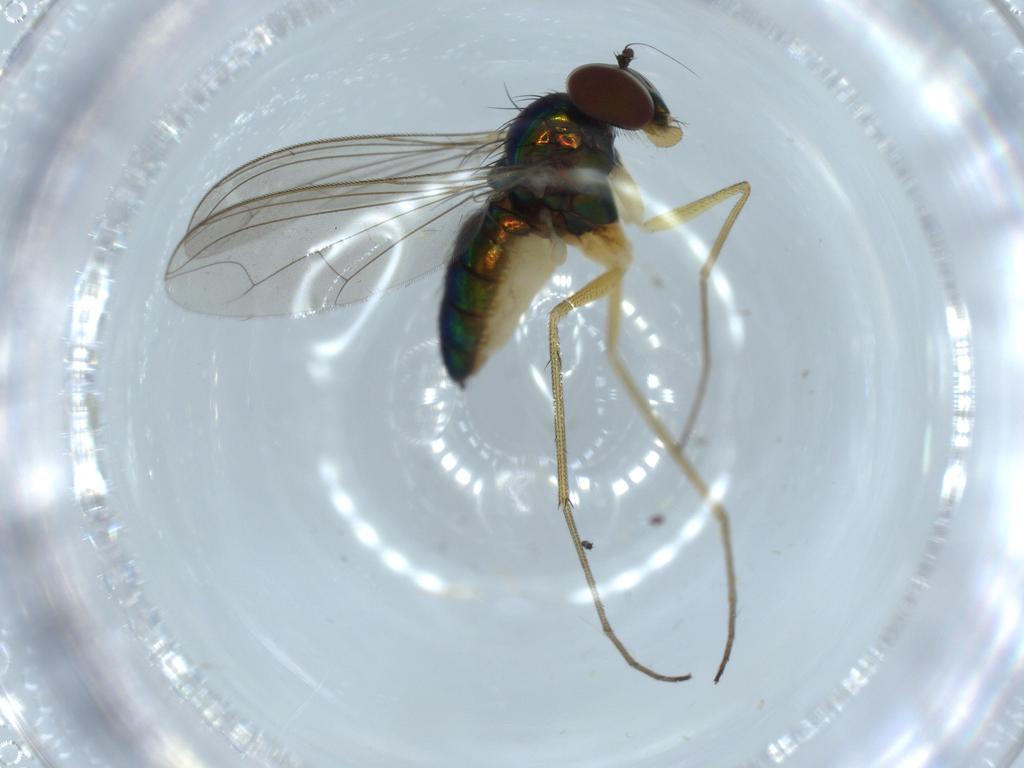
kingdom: Animalia
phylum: Arthropoda
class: Insecta
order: Diptera
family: Dolichopodidae
